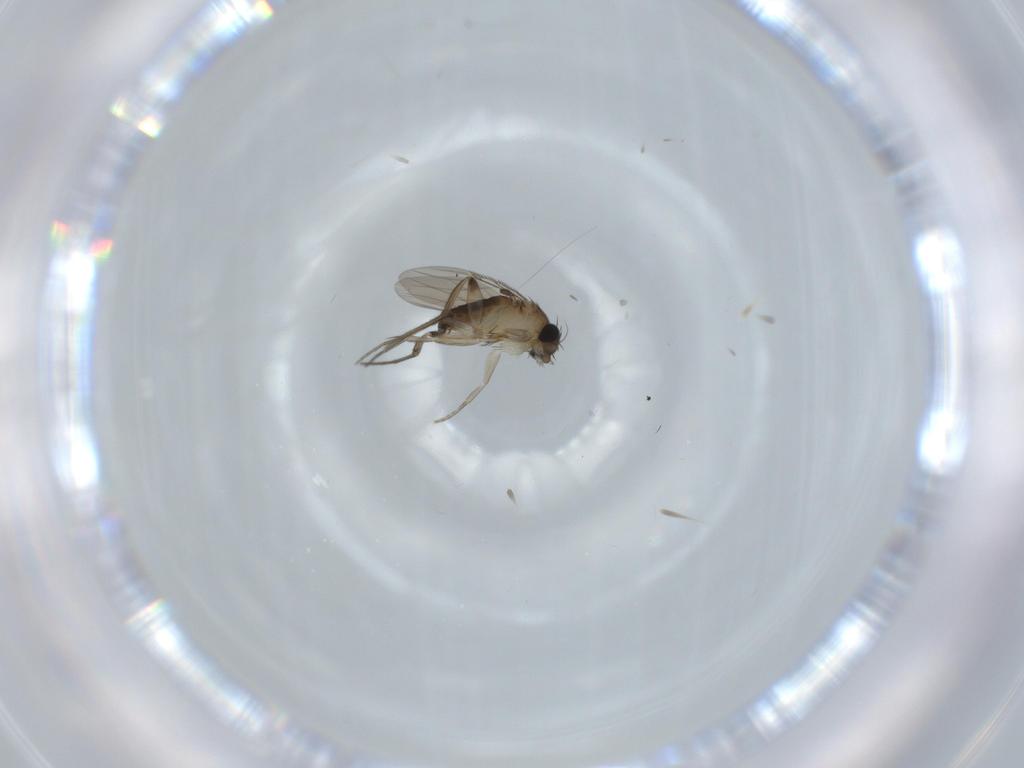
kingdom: Animalia
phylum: Arthropoda
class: Insecta
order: Diptera
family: Phoridae
